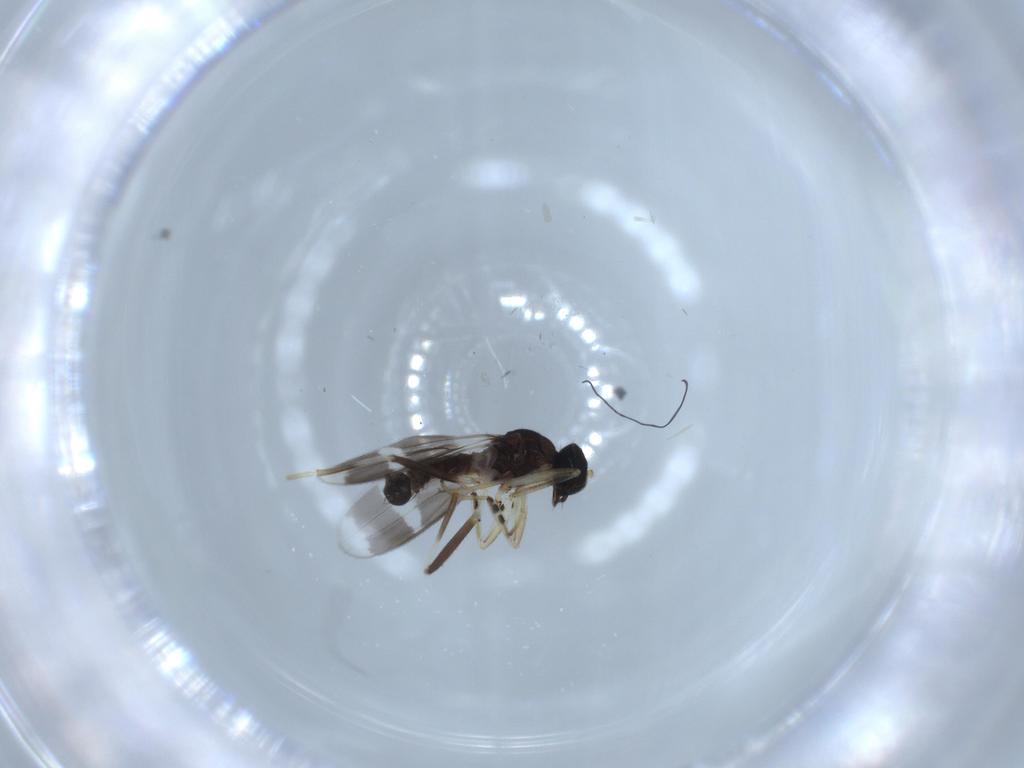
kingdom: Animalia
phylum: Arthropoda
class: Insecta
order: Diptera
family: Hybotidae
